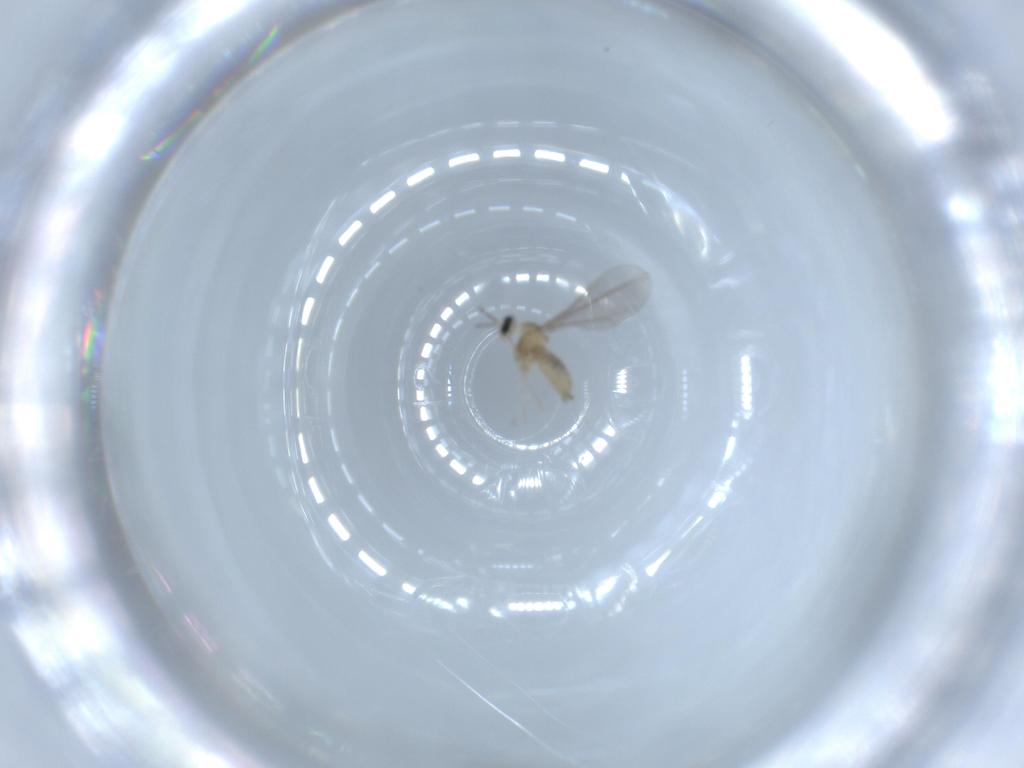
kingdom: Animalia
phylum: Arthropoda
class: Insecta
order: Diptera
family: Cecidomyiidae
